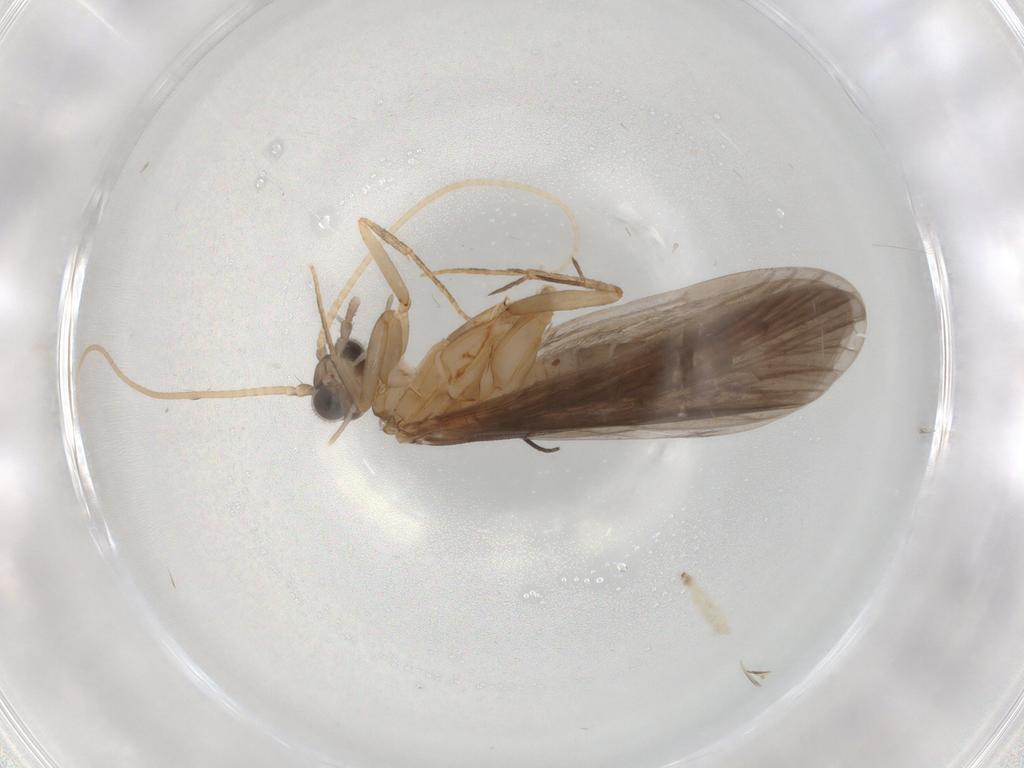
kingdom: Animalia
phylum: Arthropoda
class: Insecta
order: Trichoptera
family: Philopotamidae
